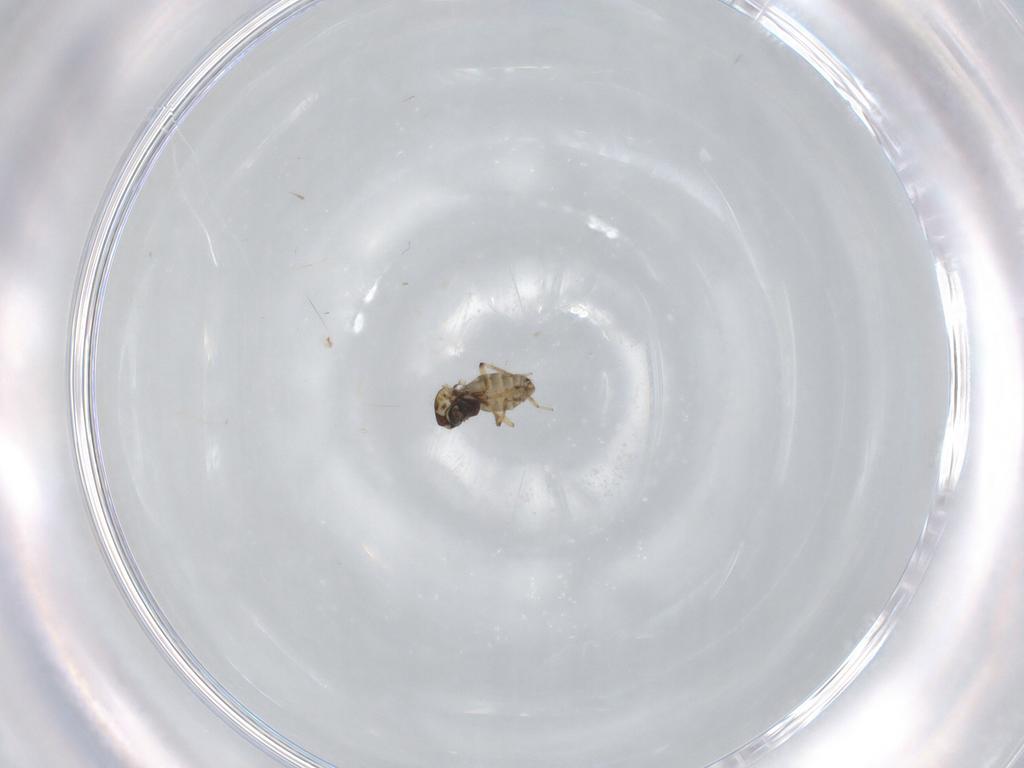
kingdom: Animalia
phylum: Arthropoda
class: Insecta
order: Diptera
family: Ceratopogonidae
